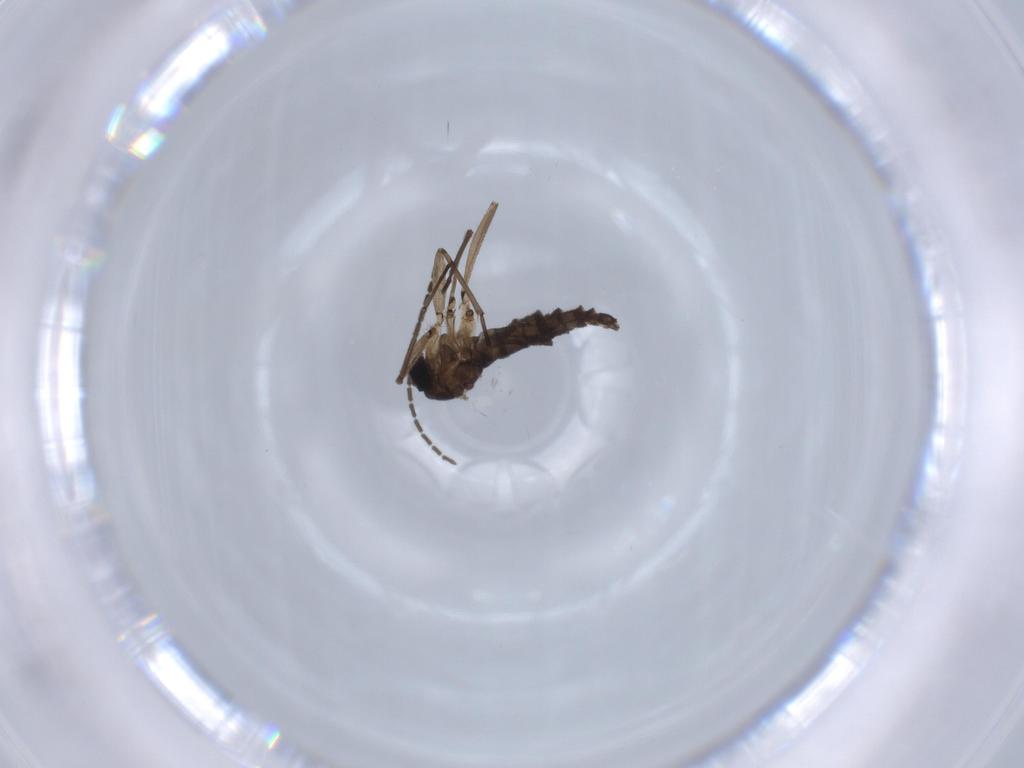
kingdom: Animalia
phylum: Arthropoda
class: Insecta
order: Diptera
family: Sciaridae
